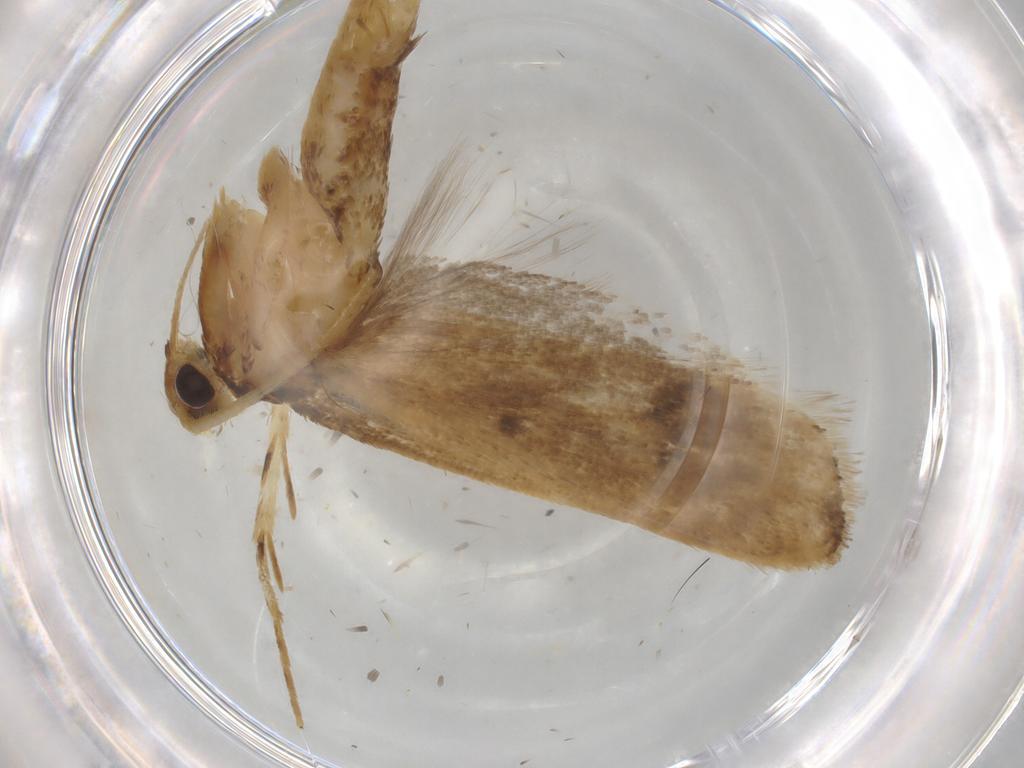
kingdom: Animalia
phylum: Arthropoda
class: Insecta
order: Lepidoptera
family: Lecithoceridae
